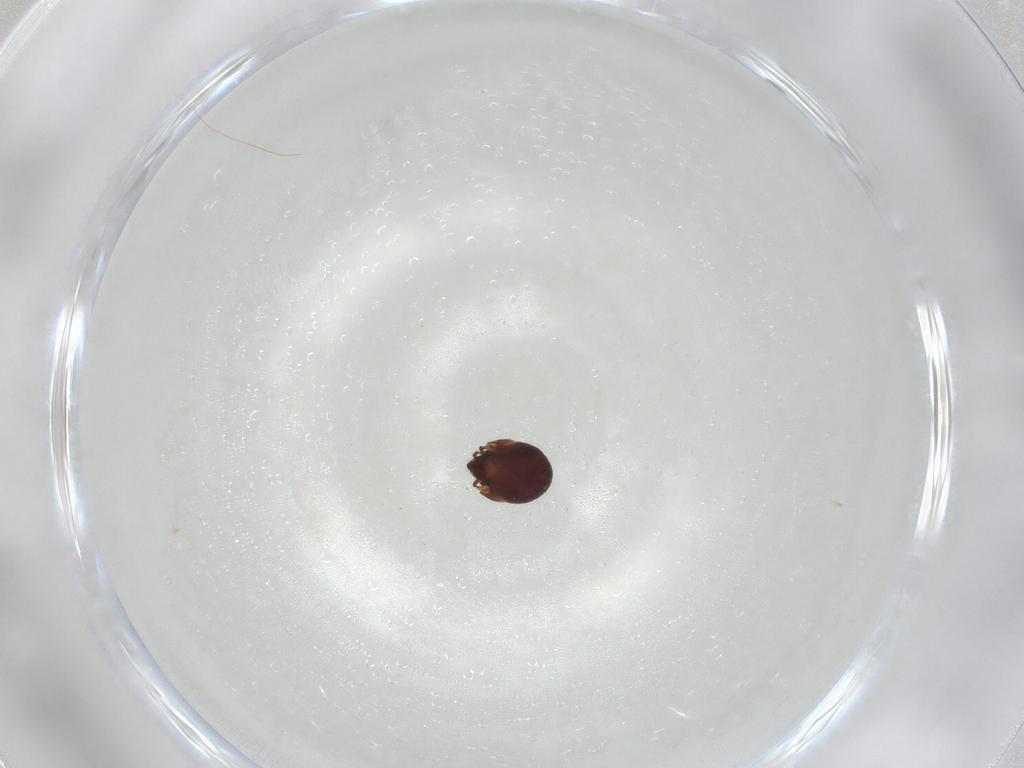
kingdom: Animalia
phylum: Arthropoda
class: Arachnida
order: Sarcoptiformes
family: Humerobatidae
